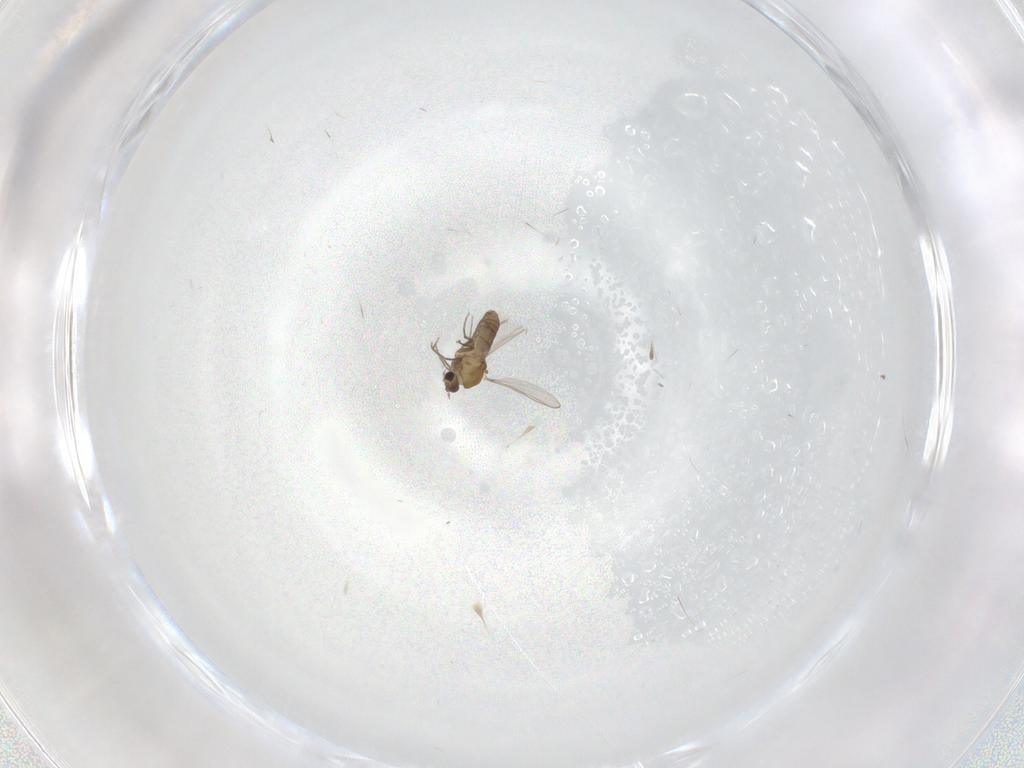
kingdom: Animalia
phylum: Arthropoda
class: Insecta
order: Diptera
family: Chironomidae
